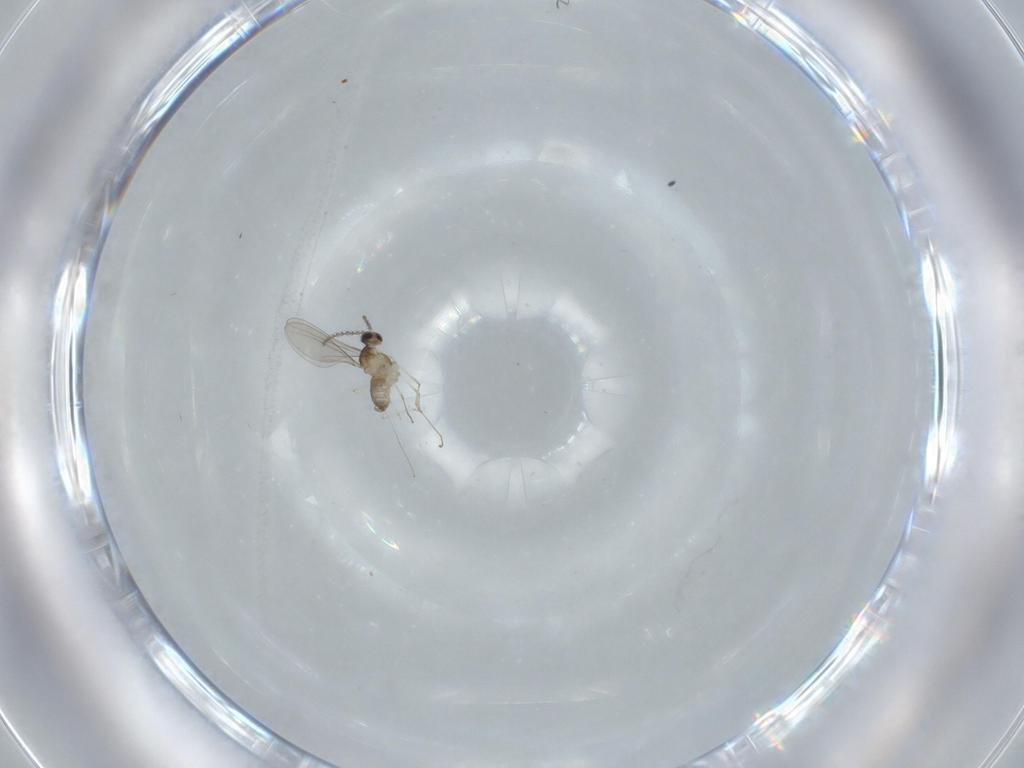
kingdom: Animalia
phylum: Arthropoda
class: Insecta
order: Diptera
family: Cecidomyiidae
